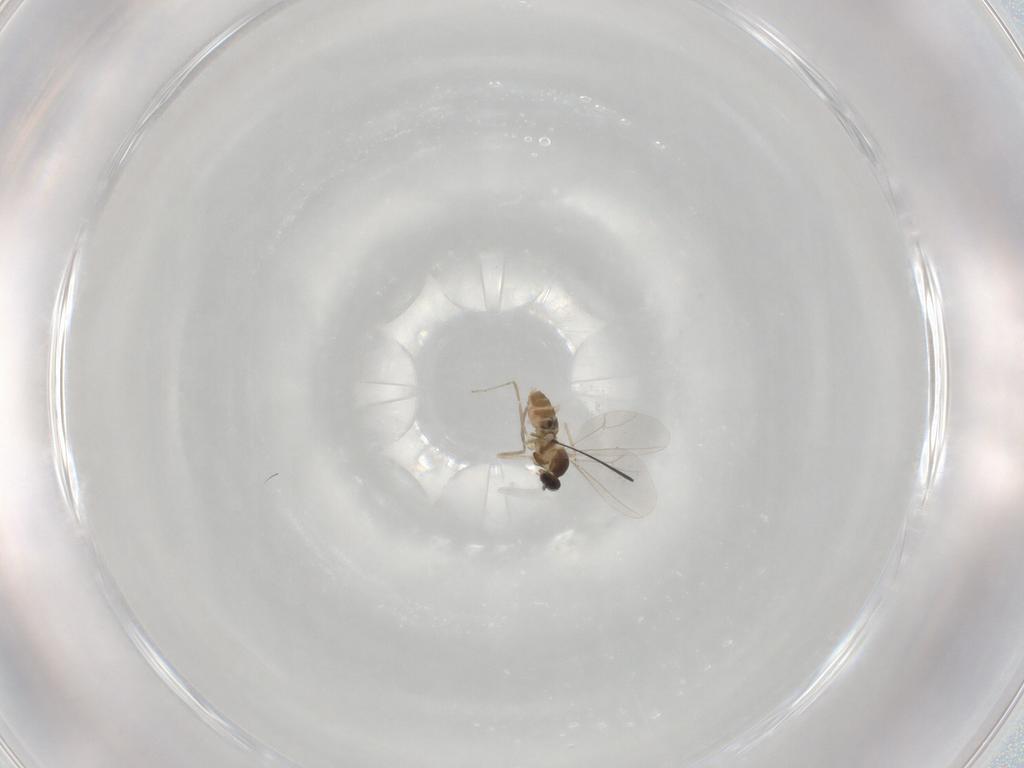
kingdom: Animalia
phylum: Arthropoda
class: Insecta
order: Diptera
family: Cecidomyiidae
